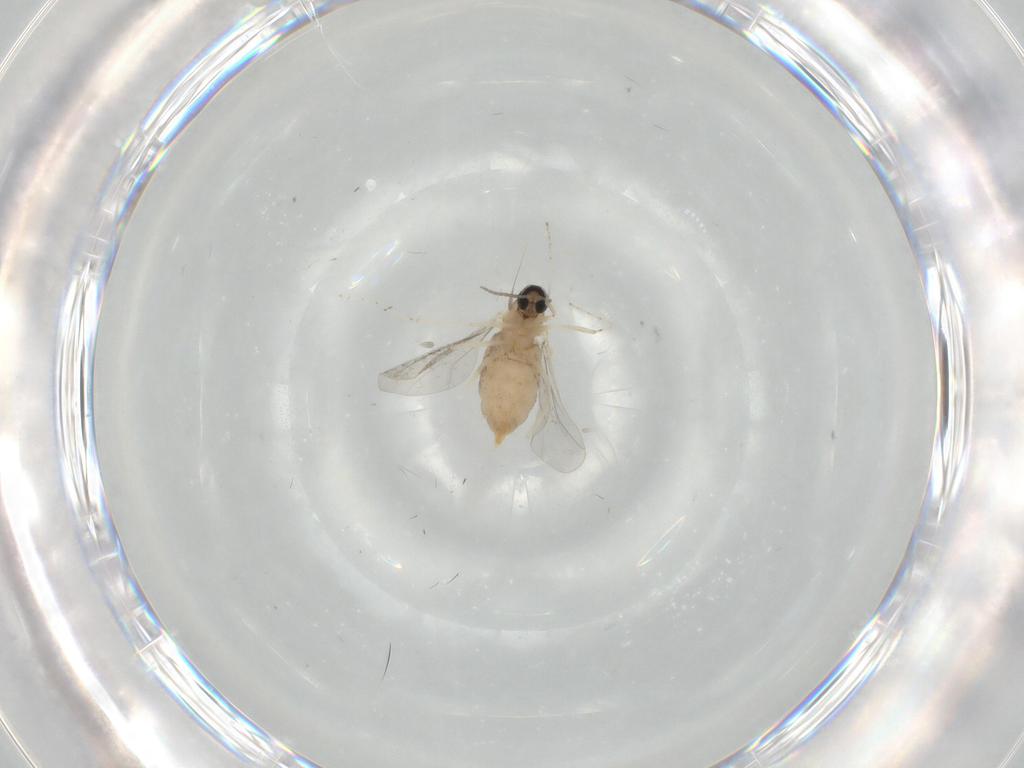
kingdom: Animalia
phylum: Arthropoda
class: Insecta
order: Diptera
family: Cecidomyiidae
